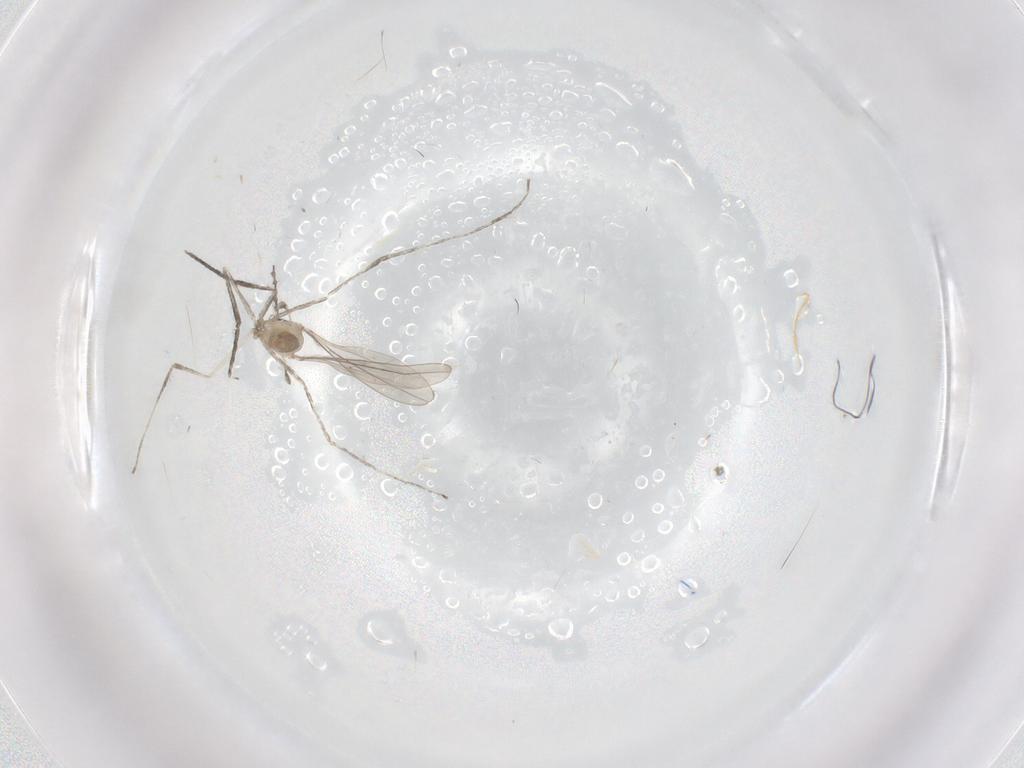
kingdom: Animalia
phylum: Arthropoda
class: Insecta
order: Diptera
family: Cecidomyiidae
